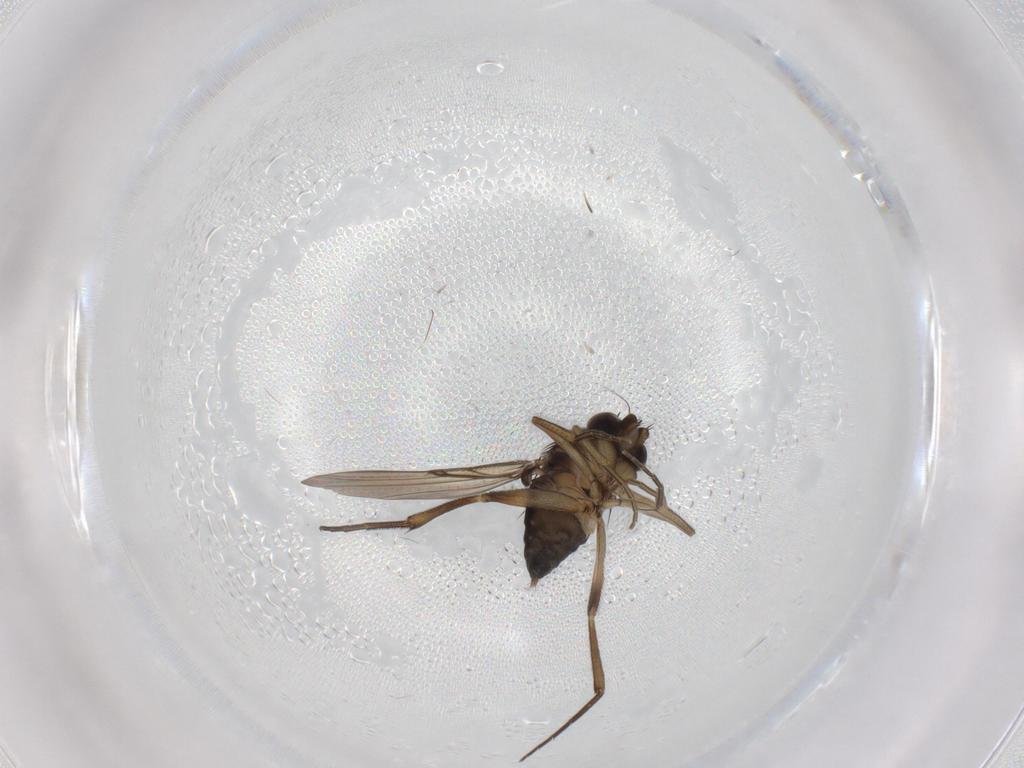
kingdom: Animalia
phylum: Arthropoda
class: Insecta
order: Diptera
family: Phoridae
